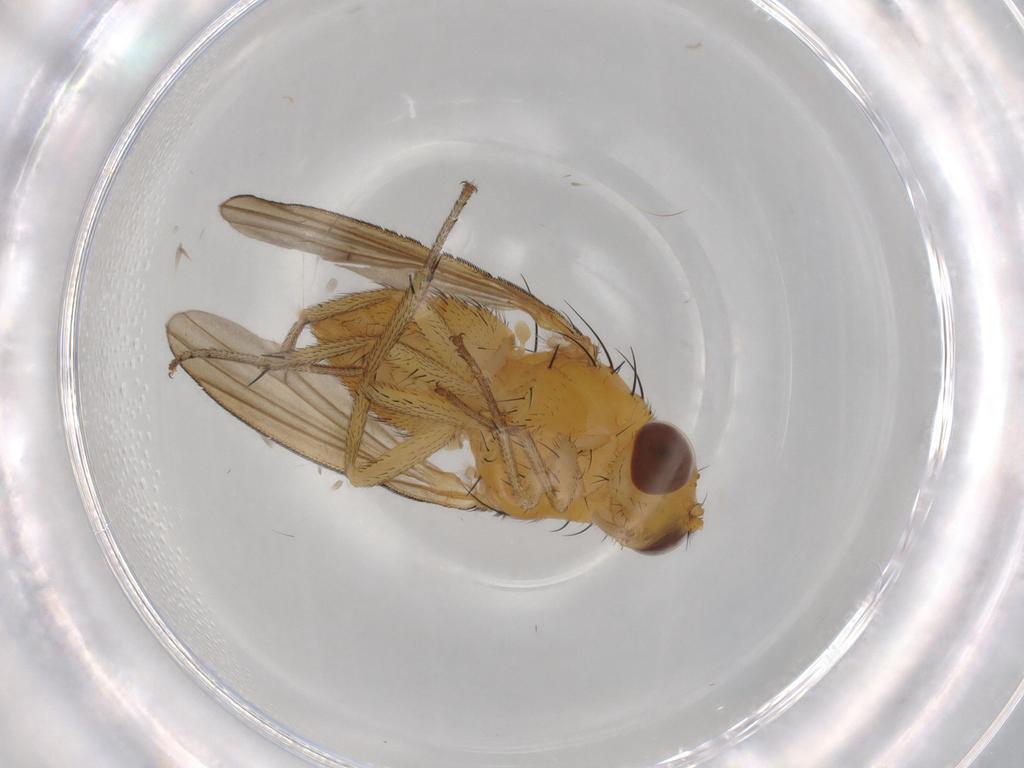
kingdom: Animalia
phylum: Arthropoda
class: Insecta
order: Diptera
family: Lauxaniidae
